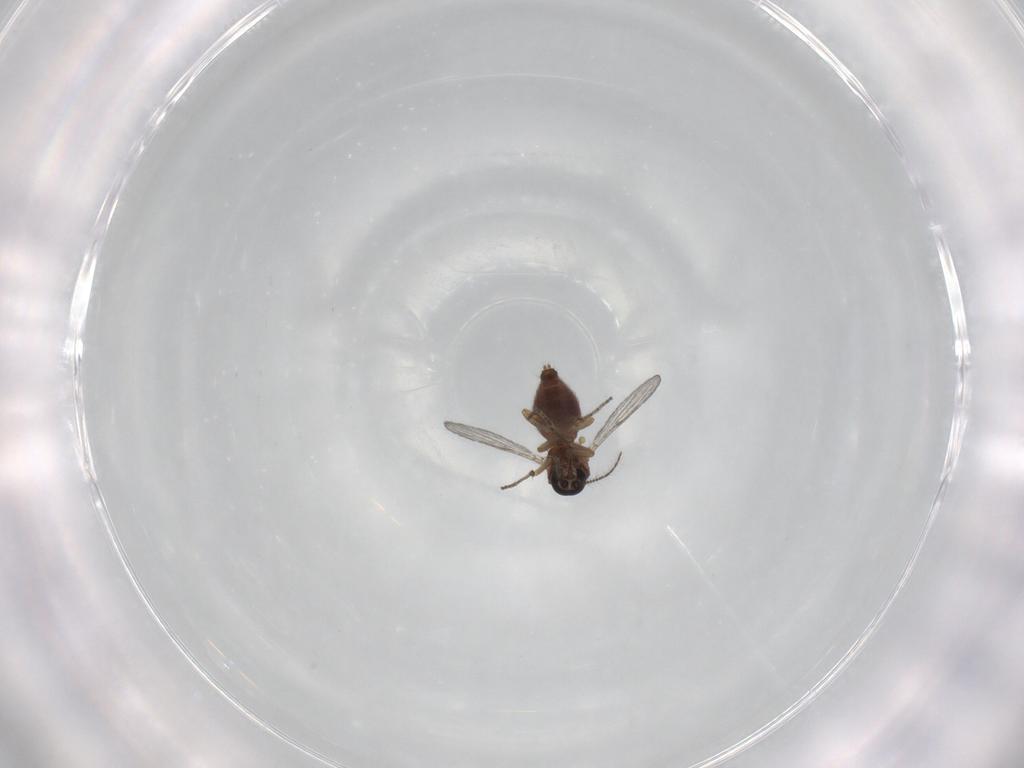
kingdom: Animalia
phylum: Arthropoda
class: Insecta
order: Diptera
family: Ceratopogonidae
